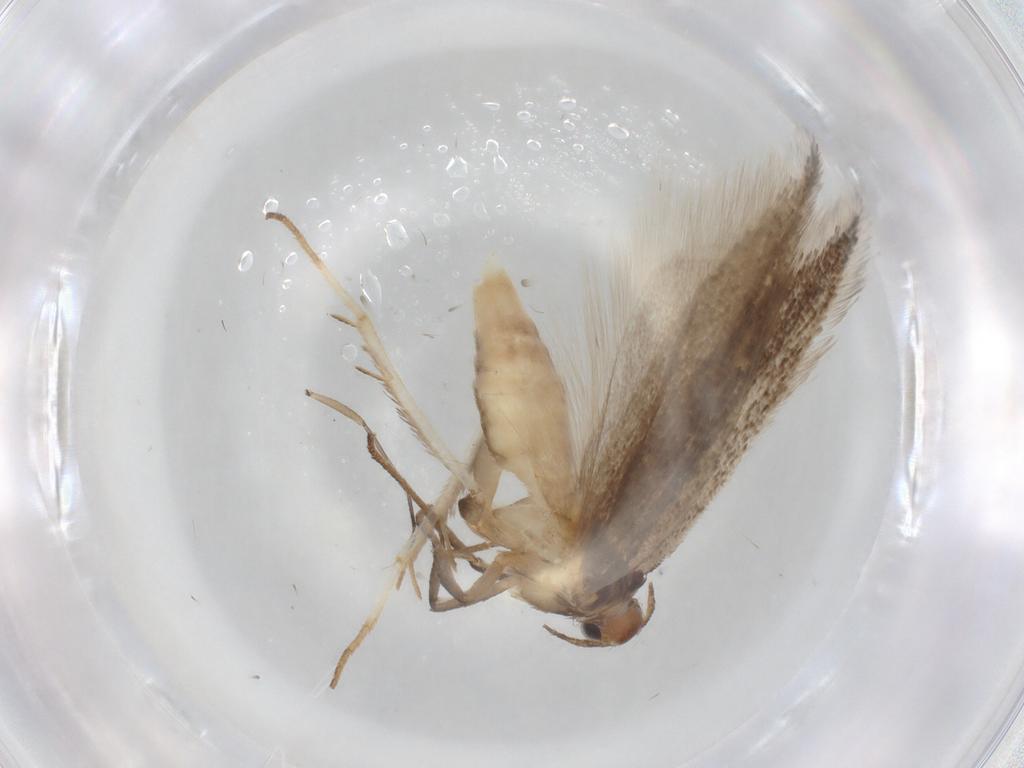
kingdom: Animalia
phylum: Arthropoda
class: Insecta
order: Lepidoptera
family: Gelechiidae
